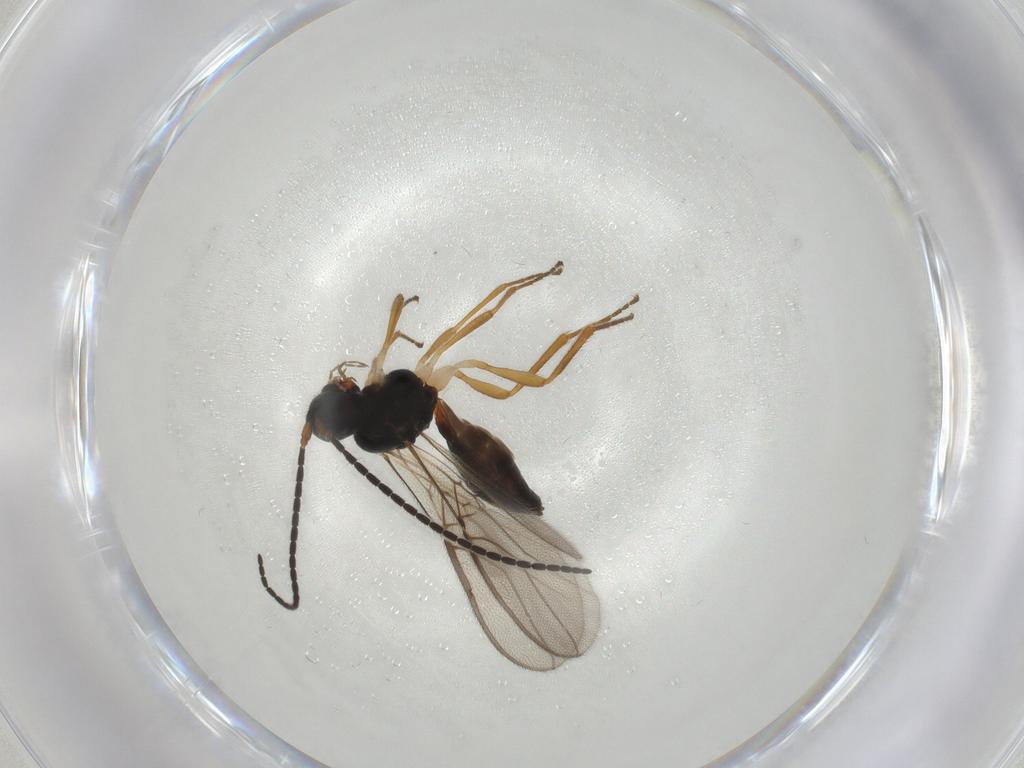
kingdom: Animalia
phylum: Arthropoda
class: Insecta
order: Hymenoptera
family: Braconidae
